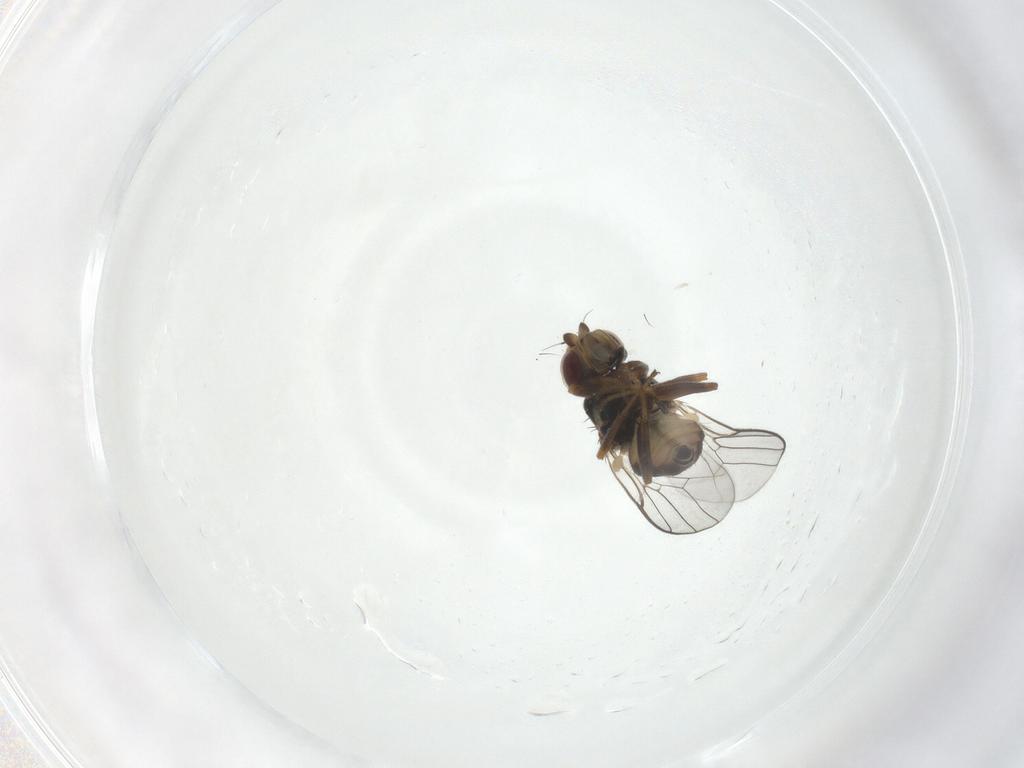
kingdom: Animalia
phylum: Arthropoda
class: Insecta
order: Diptera
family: Chloropidae
